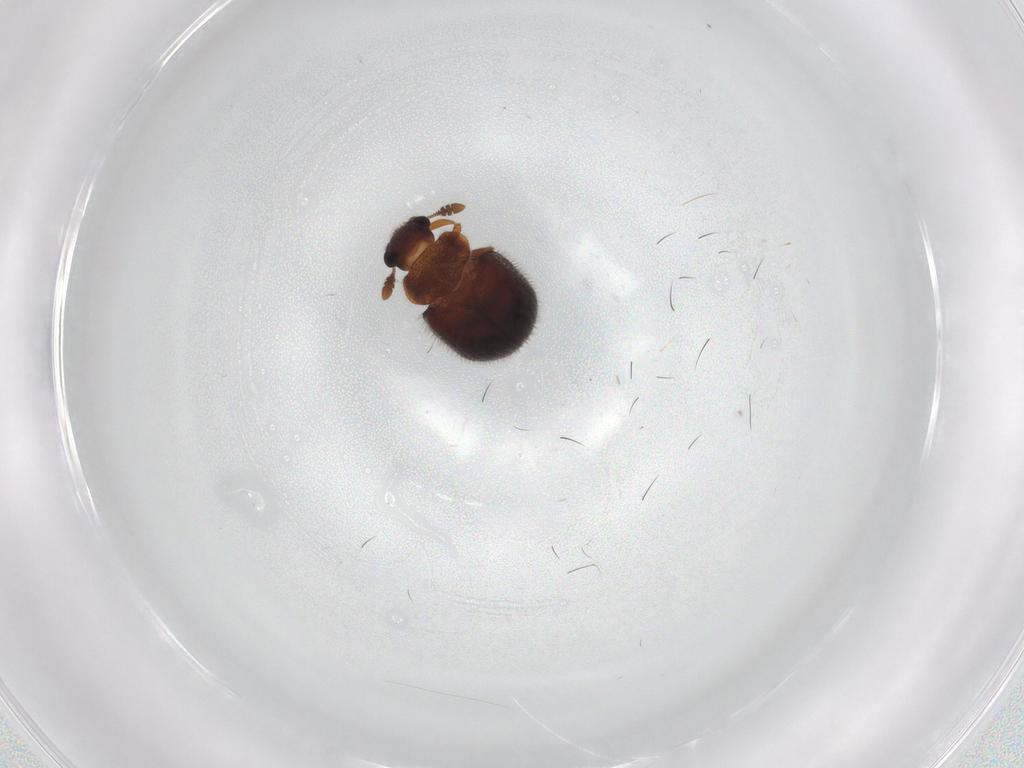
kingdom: Animalia
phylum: Arthropoda
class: Insecta
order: Coleoptera
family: Sphindidae
